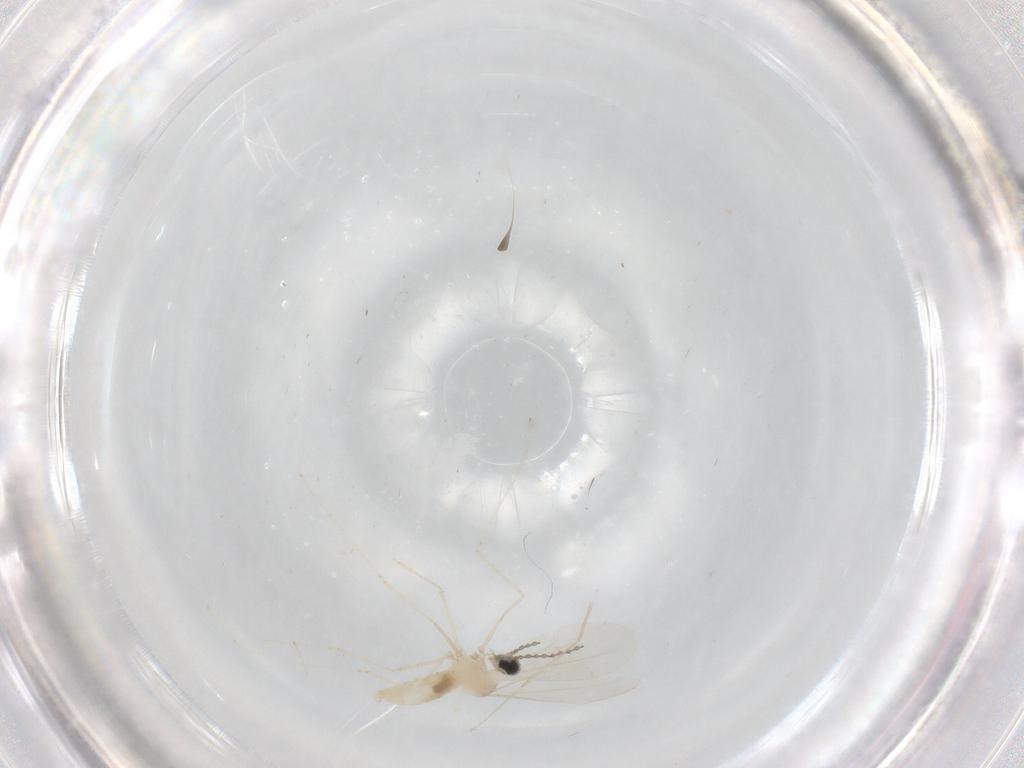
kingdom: Animalia
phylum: Arthropoda
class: Insecta
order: Diptera
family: Cecidomyiidae
